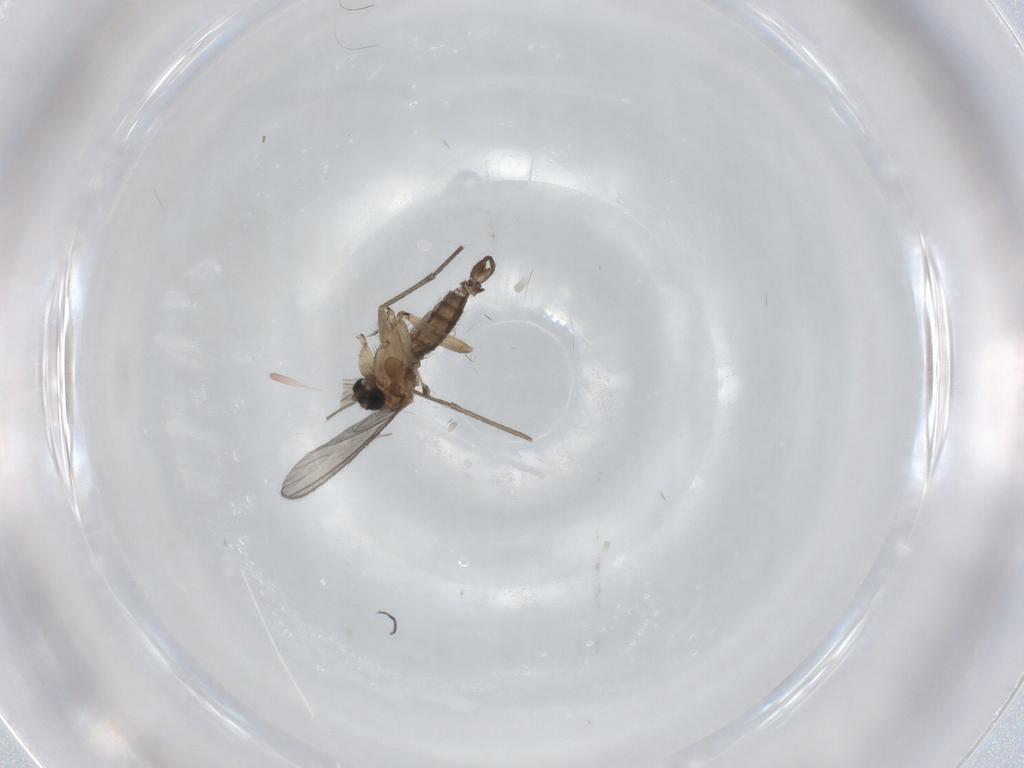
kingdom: Animalia
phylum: Arthropoda
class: Insecta
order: Diptera
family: Sciaridae
